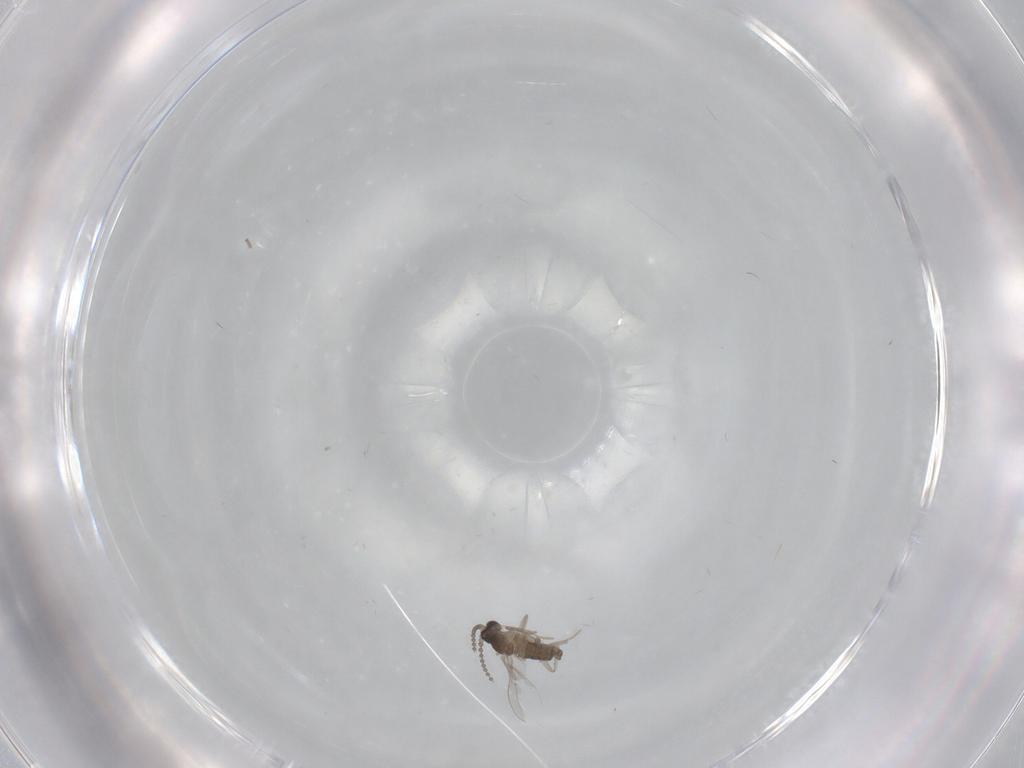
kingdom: Animalia
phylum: Arthropoda
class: Insecta
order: Diptera
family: Cecidomyiidae
